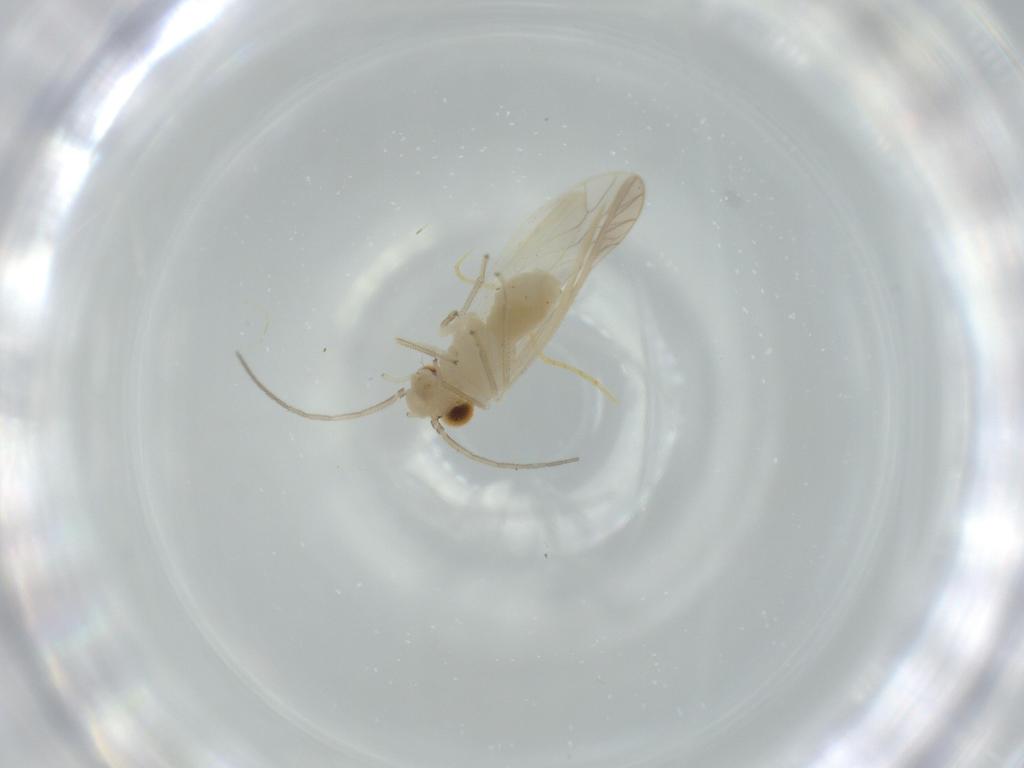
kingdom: Animalia
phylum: Arthropoda
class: Insecta
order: Psocodea
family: Caeciliusidae
